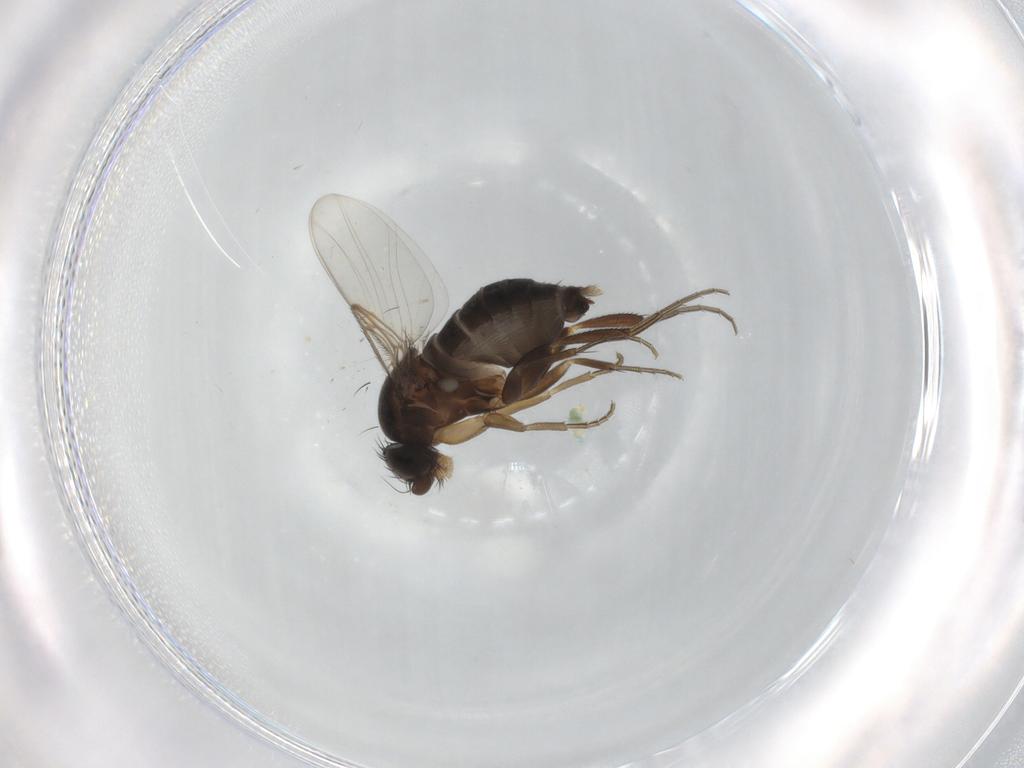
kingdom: Animalia
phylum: Arthropoda
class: Insecta
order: Diptera
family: Phoridae
